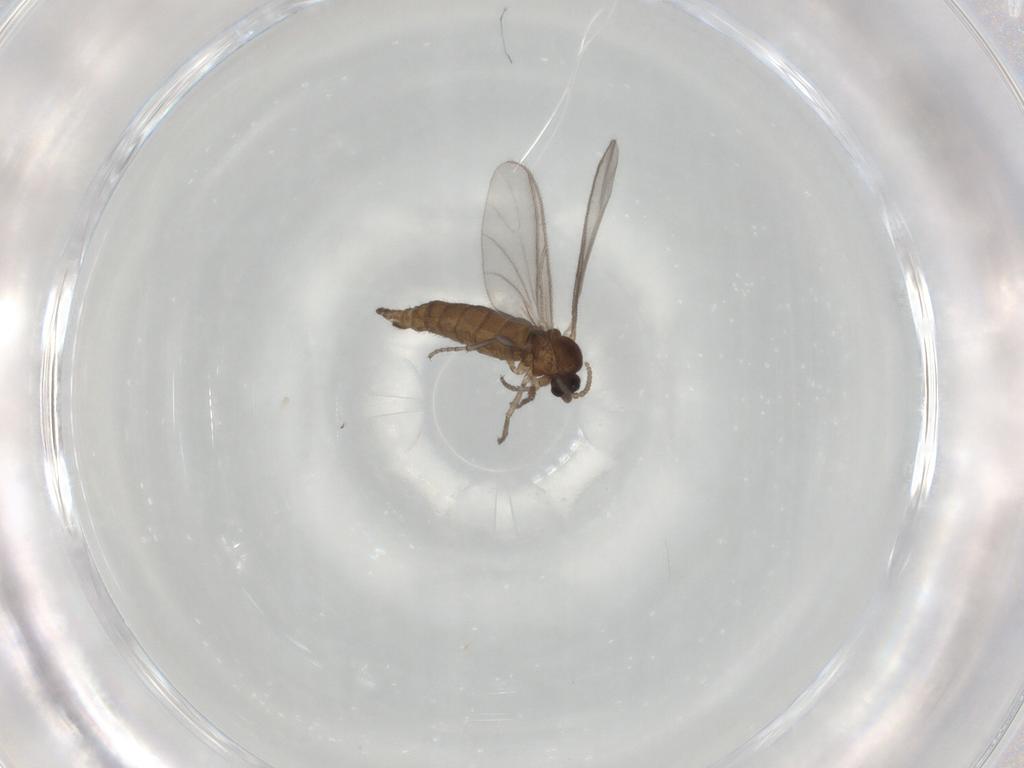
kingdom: Animalia
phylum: Arthropoda
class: Insecta
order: Diptera
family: Sciaridae
